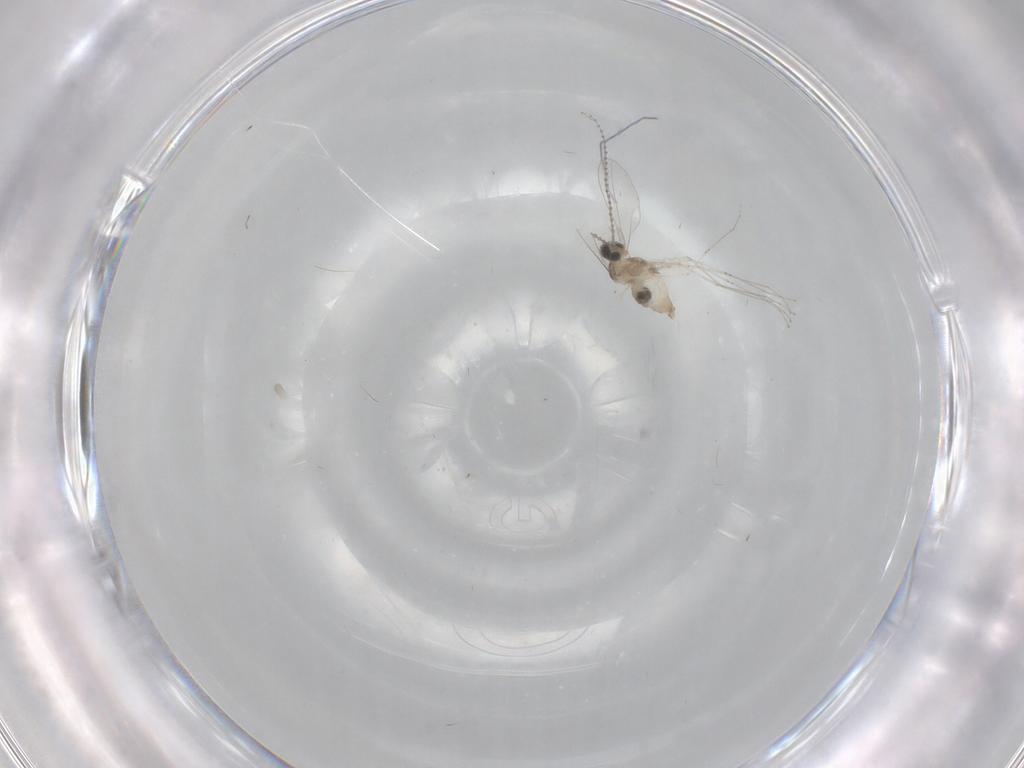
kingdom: Animalia
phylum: Arthropoda
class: Insecta
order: Diptera
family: Cecidomyiidae
